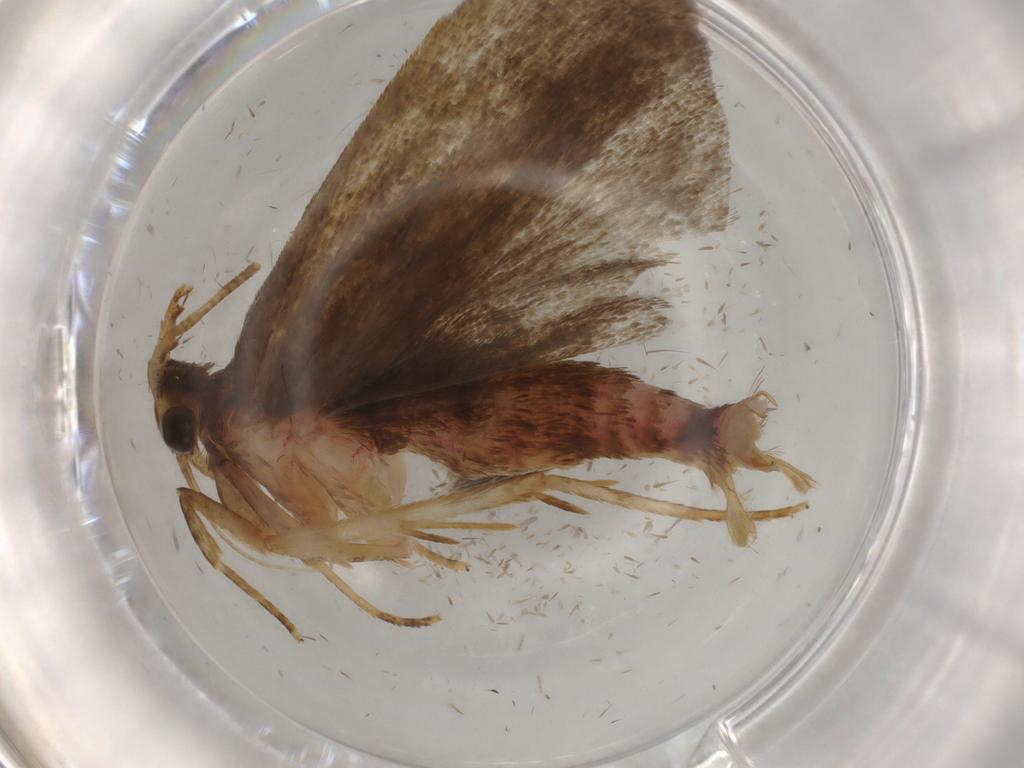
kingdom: Animalia
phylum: Arthropoda
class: Insecta
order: Lepidoptera
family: Autostichidae
